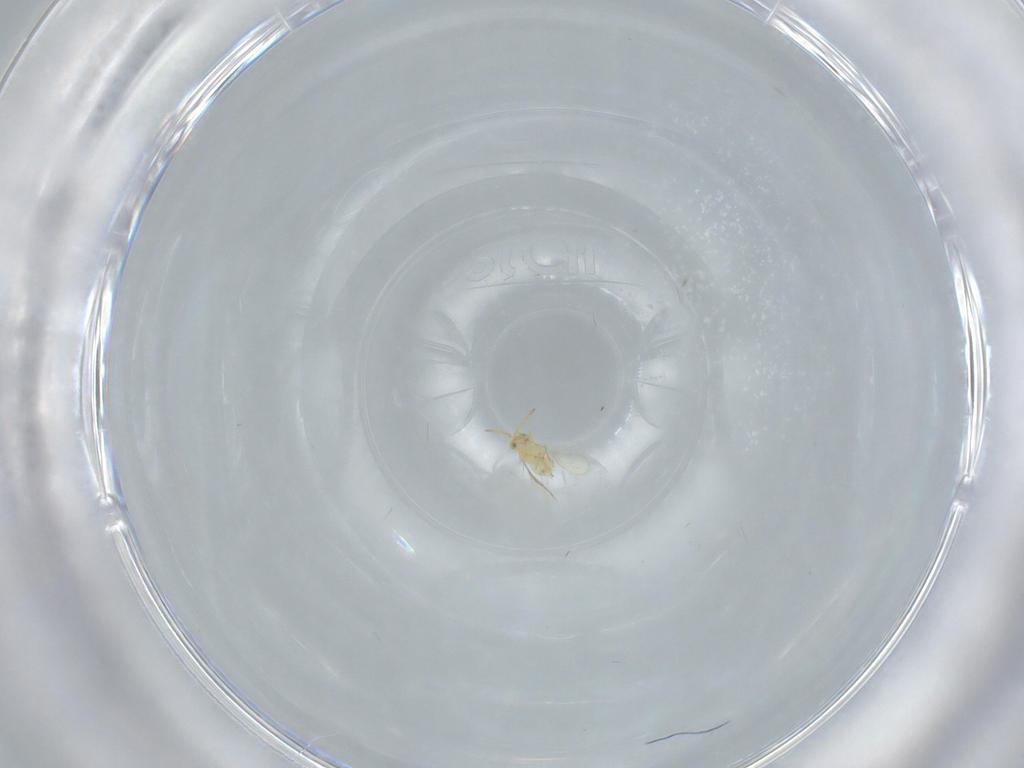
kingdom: Animalia
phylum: Arthropoda
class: Insecta
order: Hymenoptera
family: Aphelinidae
